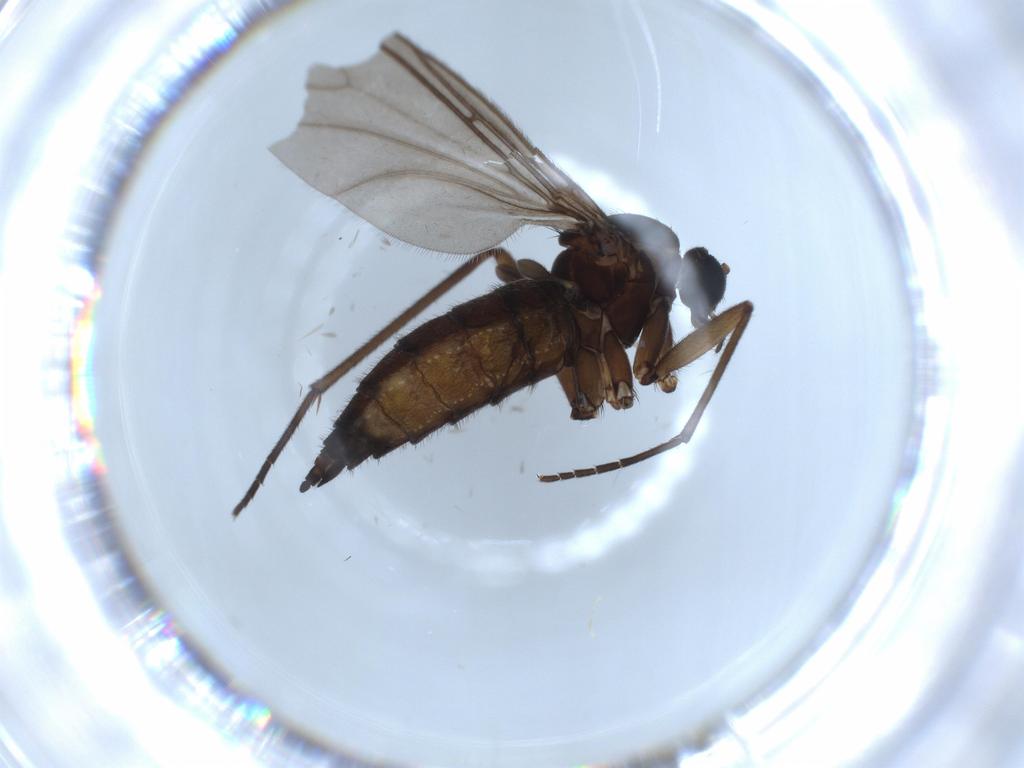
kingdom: Animalia
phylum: Arthropoda
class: Insecta
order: Diptera
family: Sciaridae
